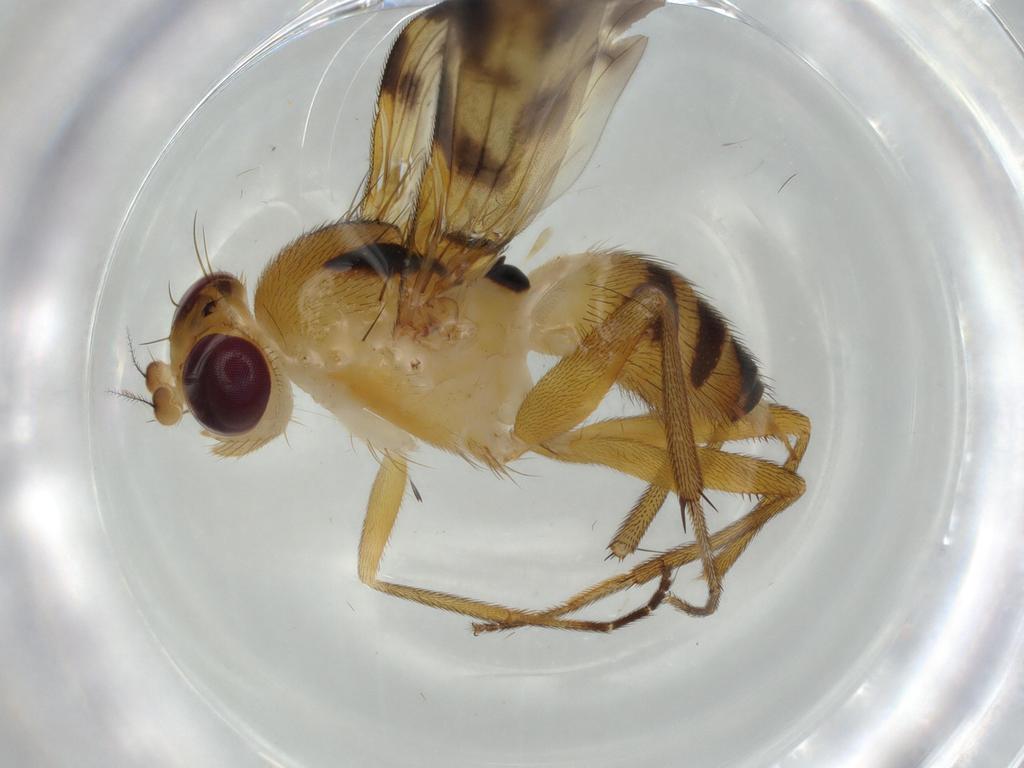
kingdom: Animalia
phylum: Arthropoda
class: Insecta
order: Diptera
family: Clusiidae
